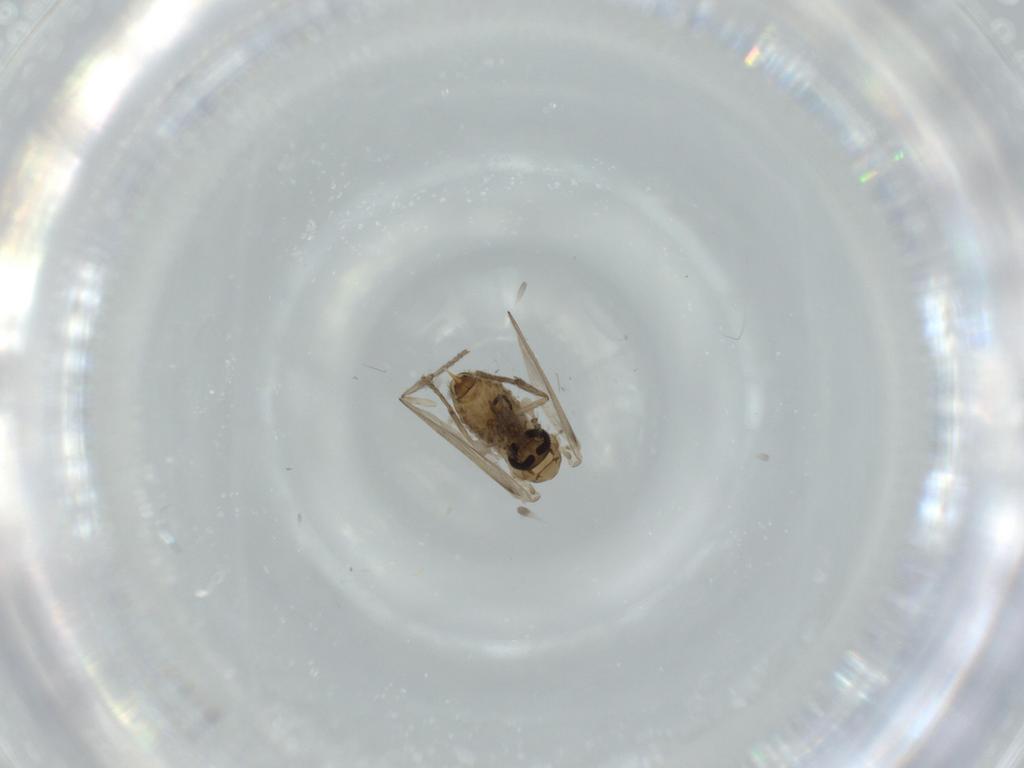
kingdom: Animalia
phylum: Arthropoda
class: Insecta
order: Diptera
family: Psychodidae
